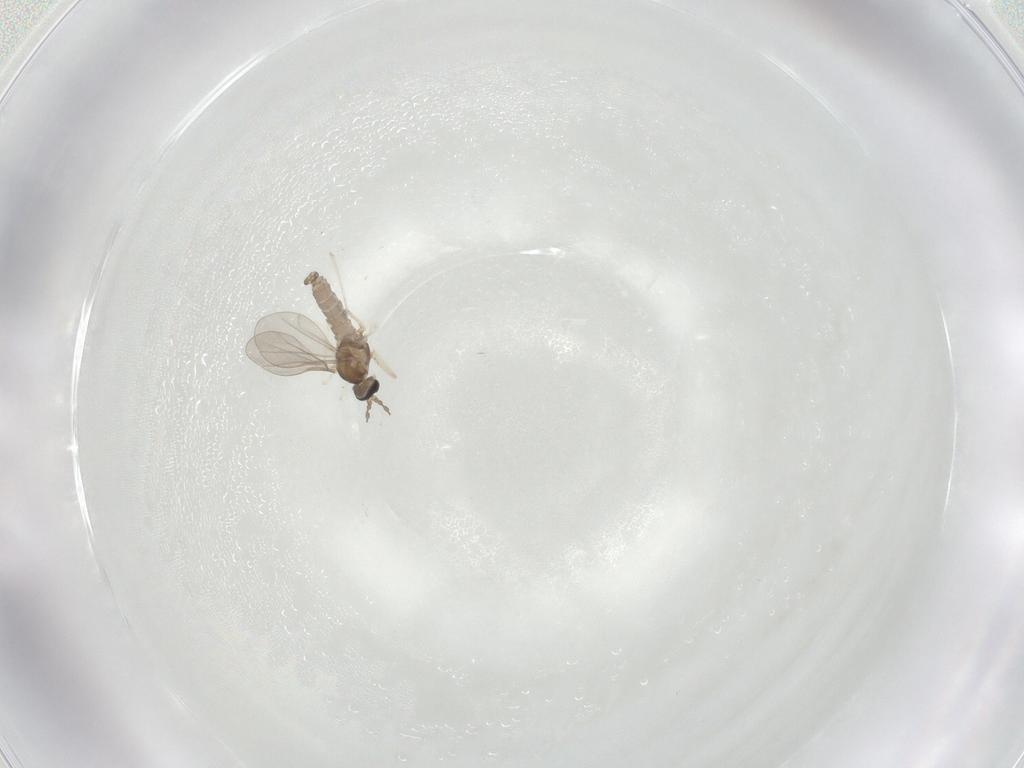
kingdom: Animalia
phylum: Arthropoda
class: Insecta
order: Diptera
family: Cecidomyiidae
